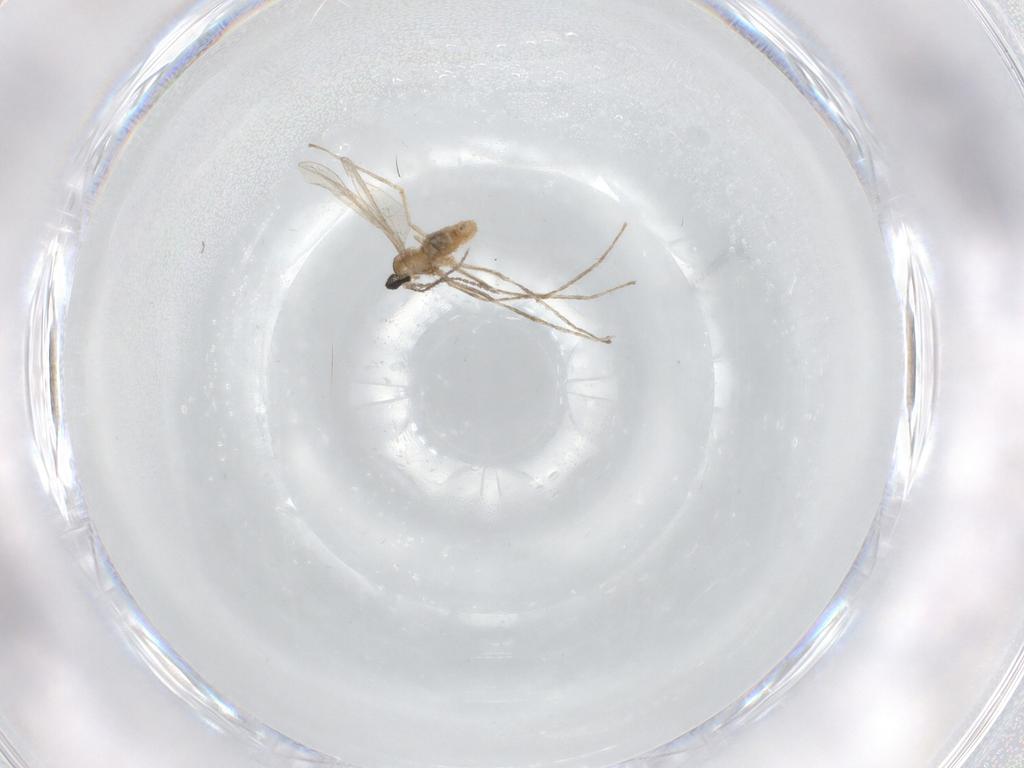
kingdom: Animalia
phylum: Arthropoda
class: Insecta
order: Diptera
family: Cecidomyiidae
